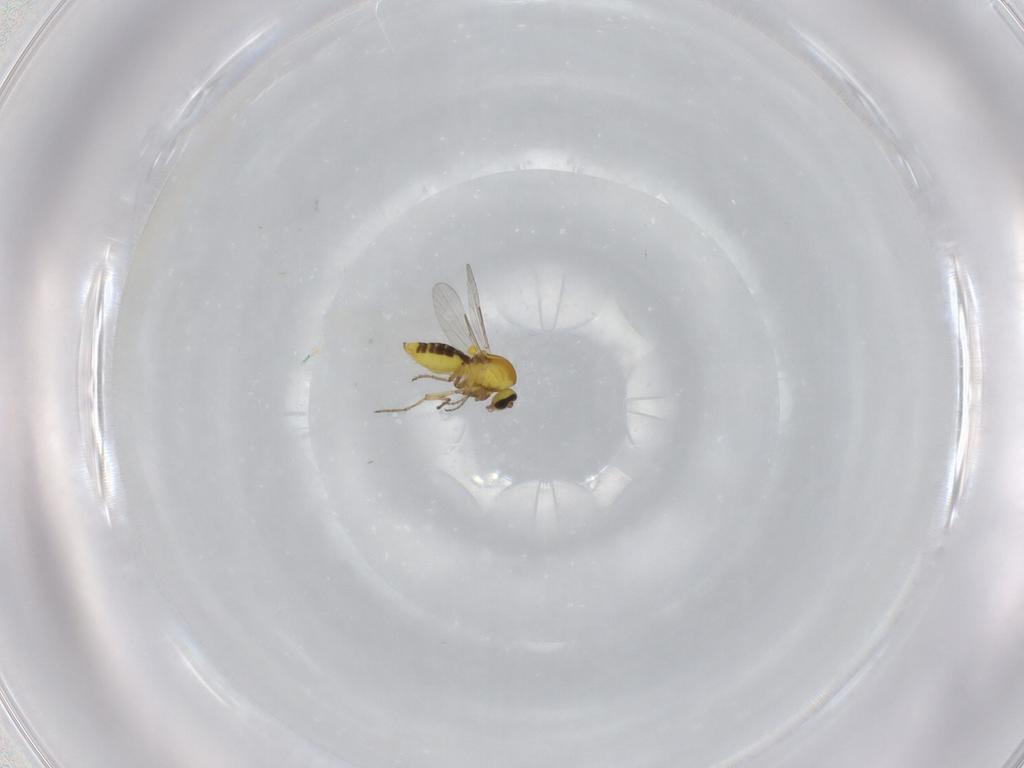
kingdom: Animalia
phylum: Arthropoda
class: Insecta
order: Diptera
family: Ceratopogonidae
